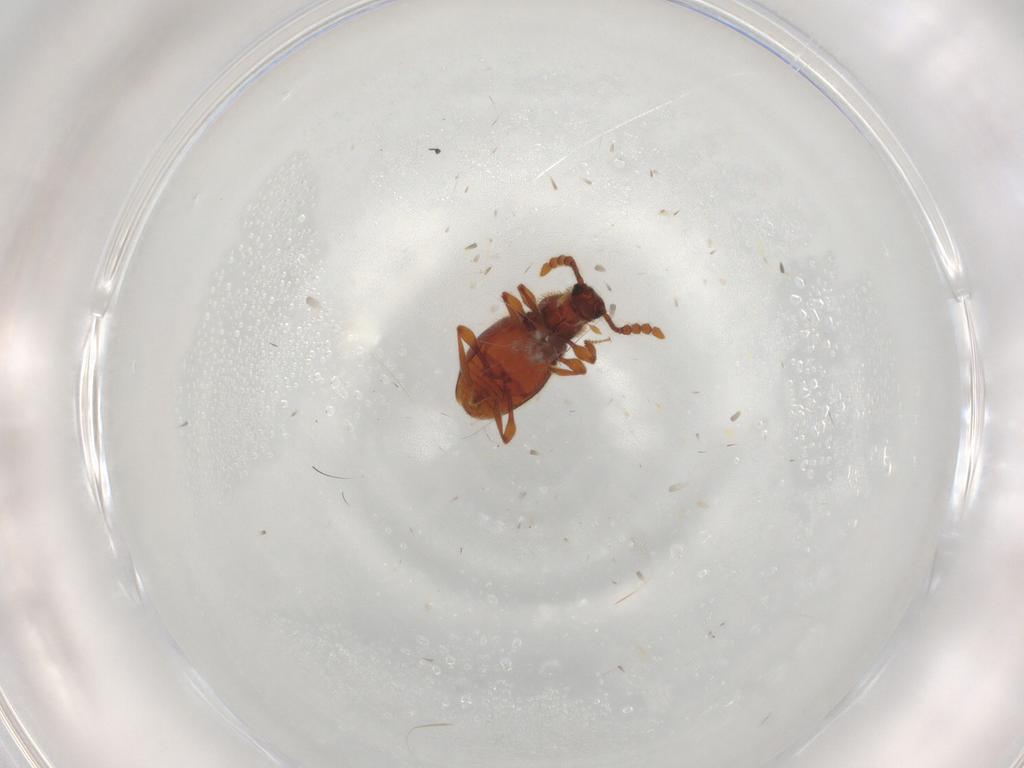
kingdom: Animalia
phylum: Arthropoda
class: Insecta
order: Coleoptera
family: Staphylinidae
